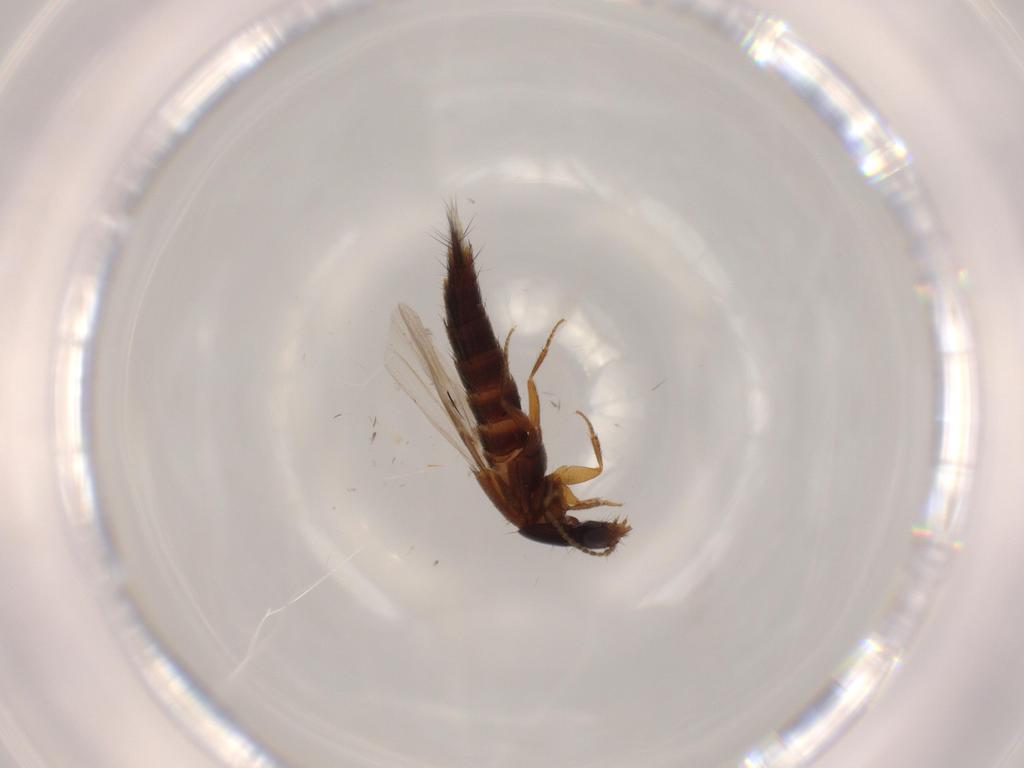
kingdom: Animalia
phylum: Arthropoda
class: Insecta
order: Coleoptera
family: Staphylinidae
